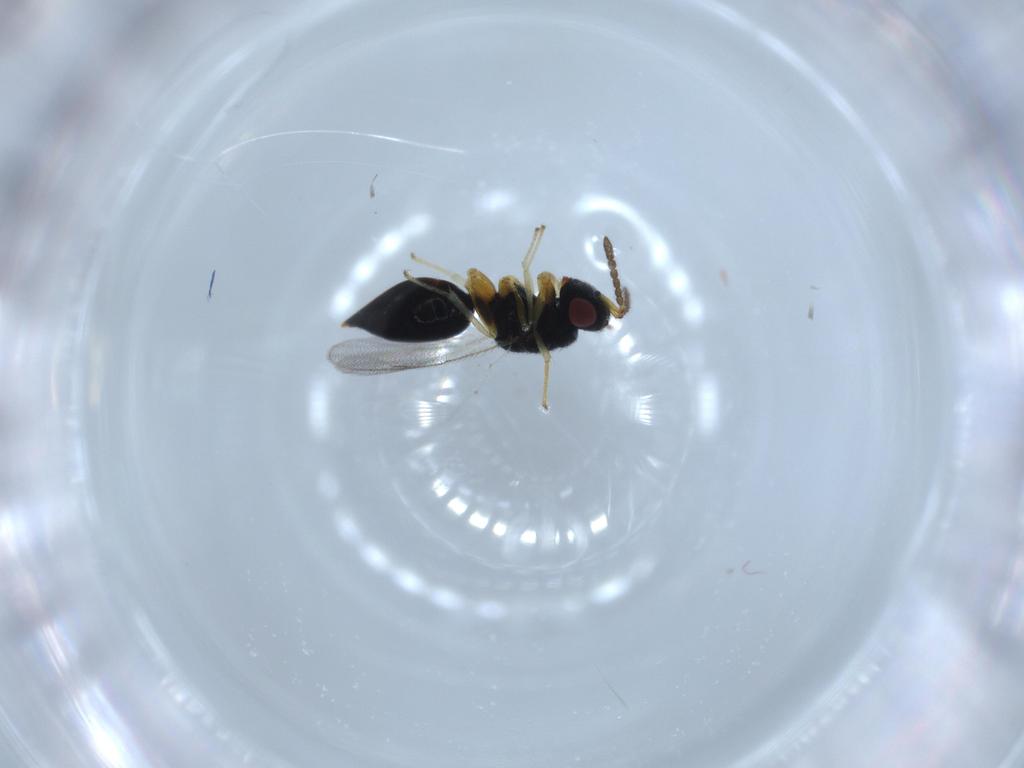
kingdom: Animalia
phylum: Arthropoda
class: Insecta
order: Hymenoptera
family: Eurytomidae
